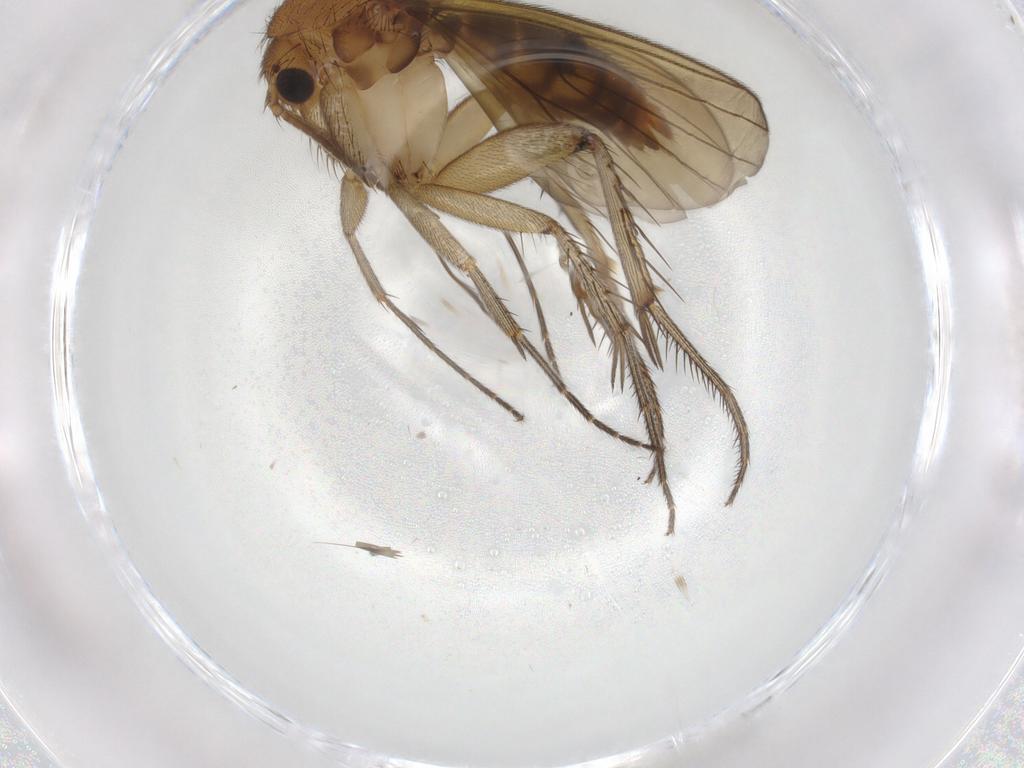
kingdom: Animalia
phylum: Arthropoda
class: Insecta
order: Diptera
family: Mycetophilidae
